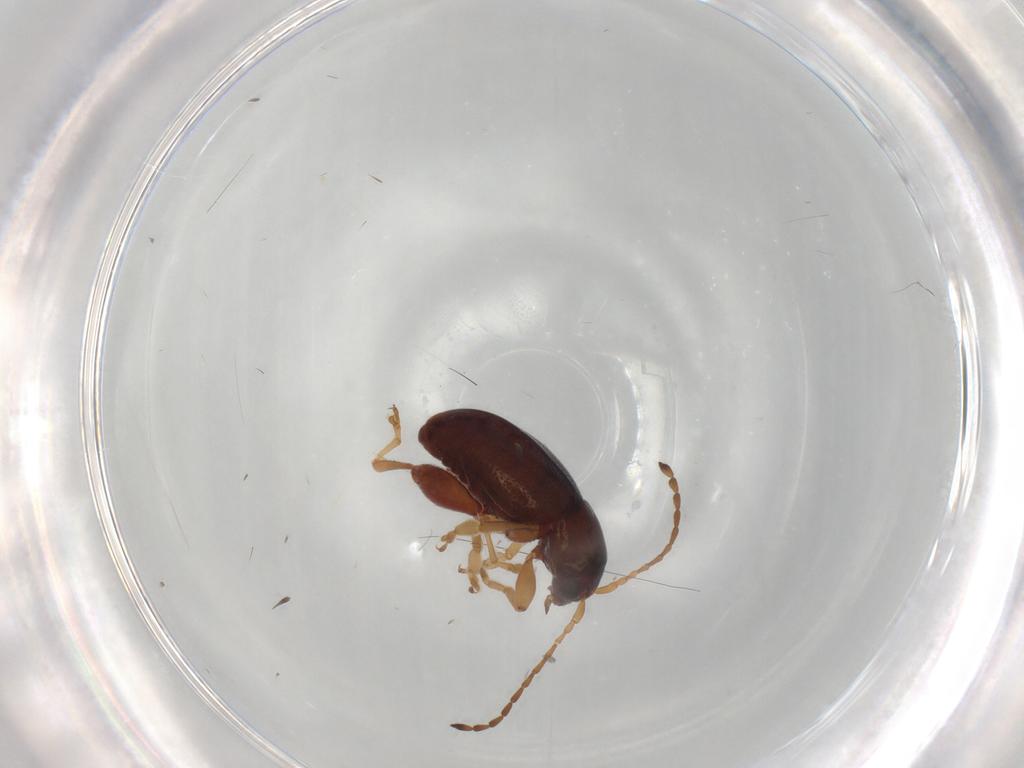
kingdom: Animalia
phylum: Arthropoda
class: Insecta
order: Coleoptera
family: Chrysomelidae
